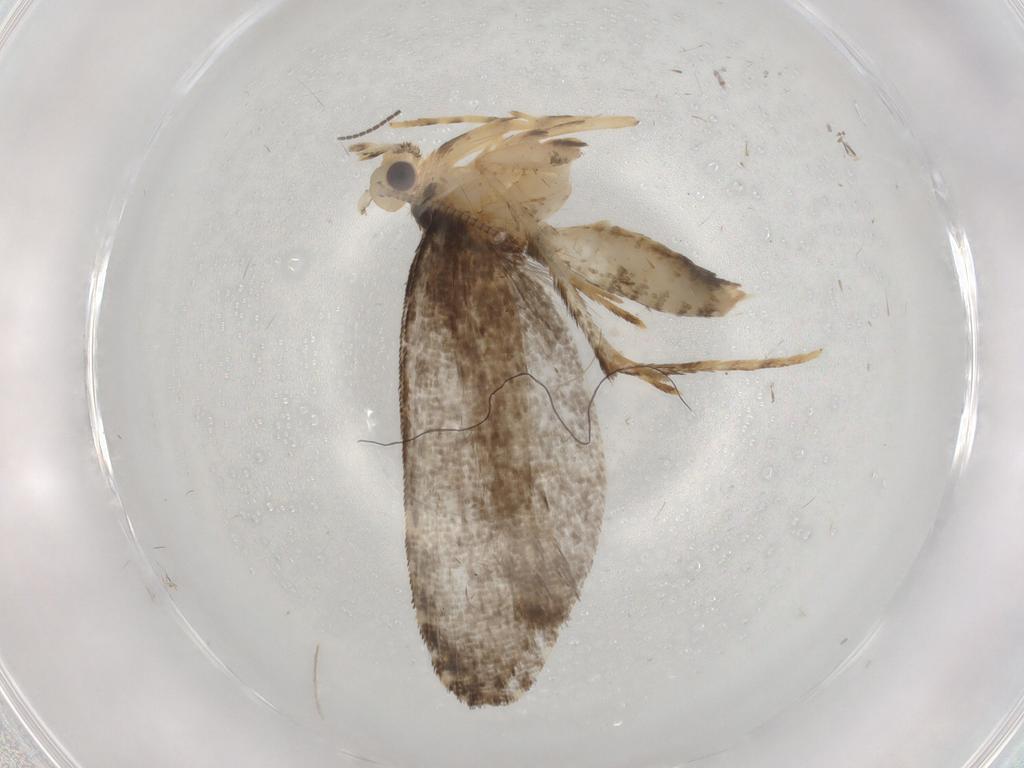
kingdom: Animalia
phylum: Arthropoda
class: Insecta
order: Lepidoptera
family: Tineidae
